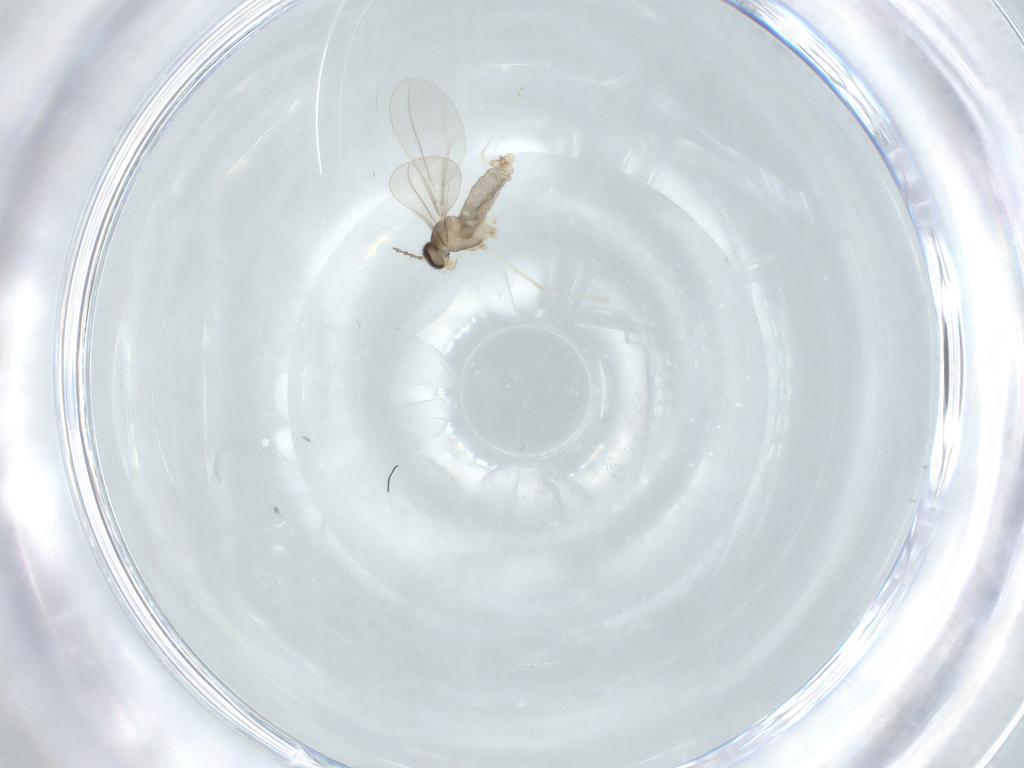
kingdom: Animalia
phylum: Arthropoda
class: Insecta
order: Diptera
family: Cecidomyiidae
